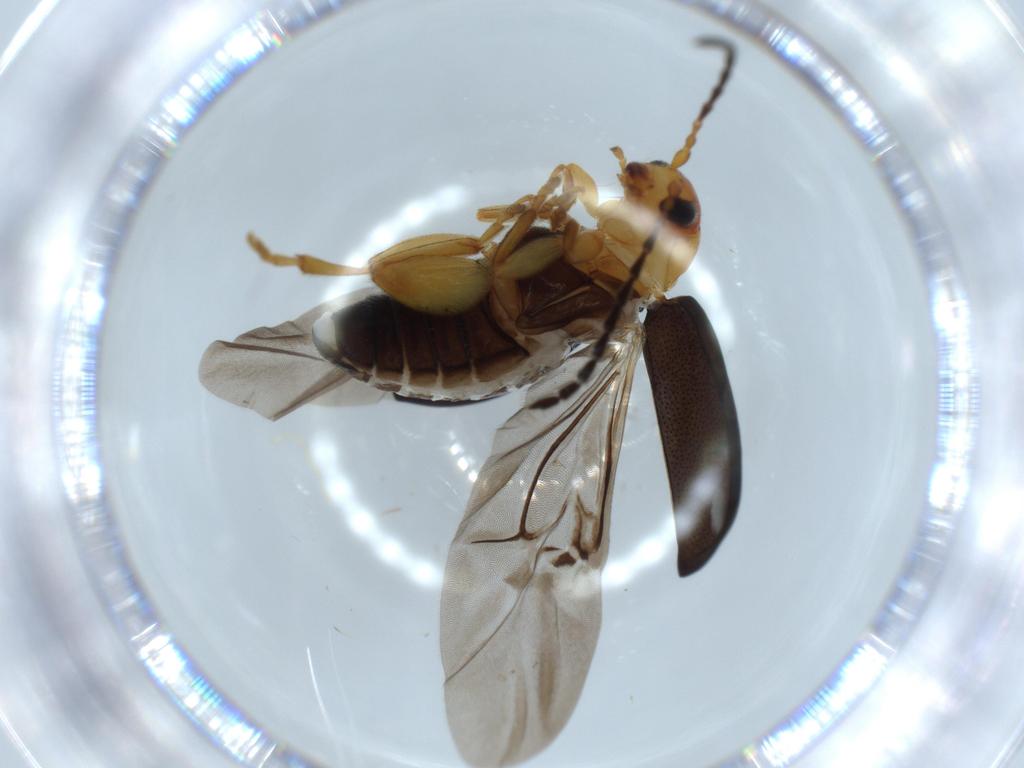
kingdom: Animalia
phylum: Arthropoda
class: Insecta
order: Coleoptera
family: Chrysomelidae
